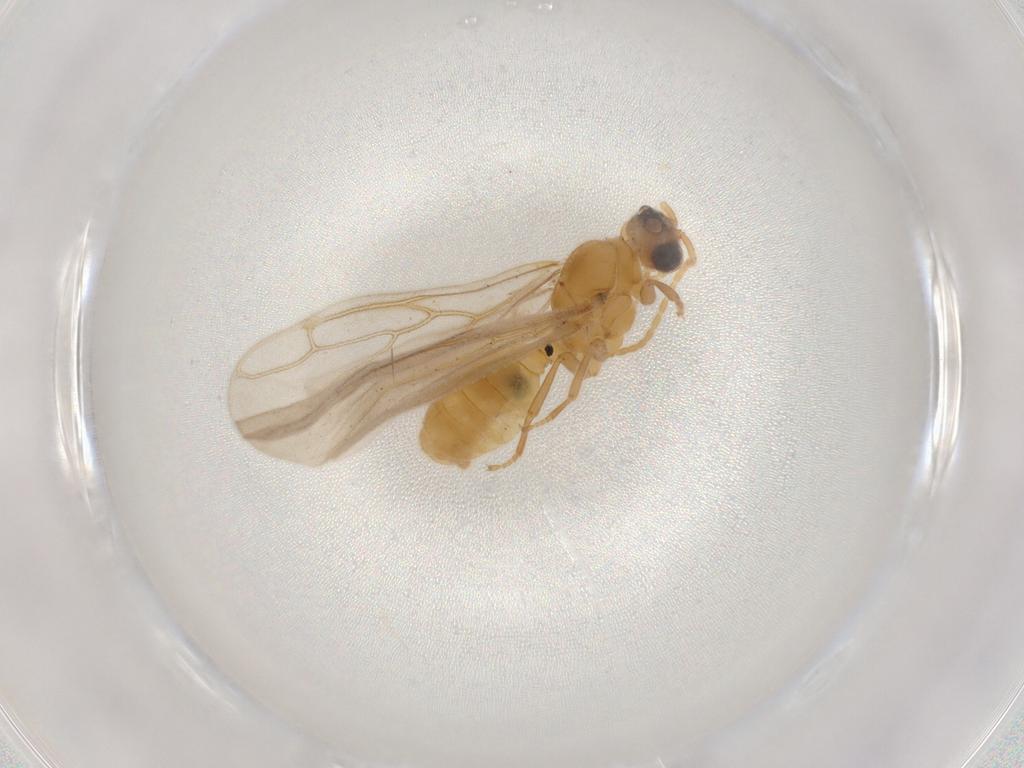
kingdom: Animalia
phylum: Arthropoda
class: Insecta
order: Hymenoptera
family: Formicidae
